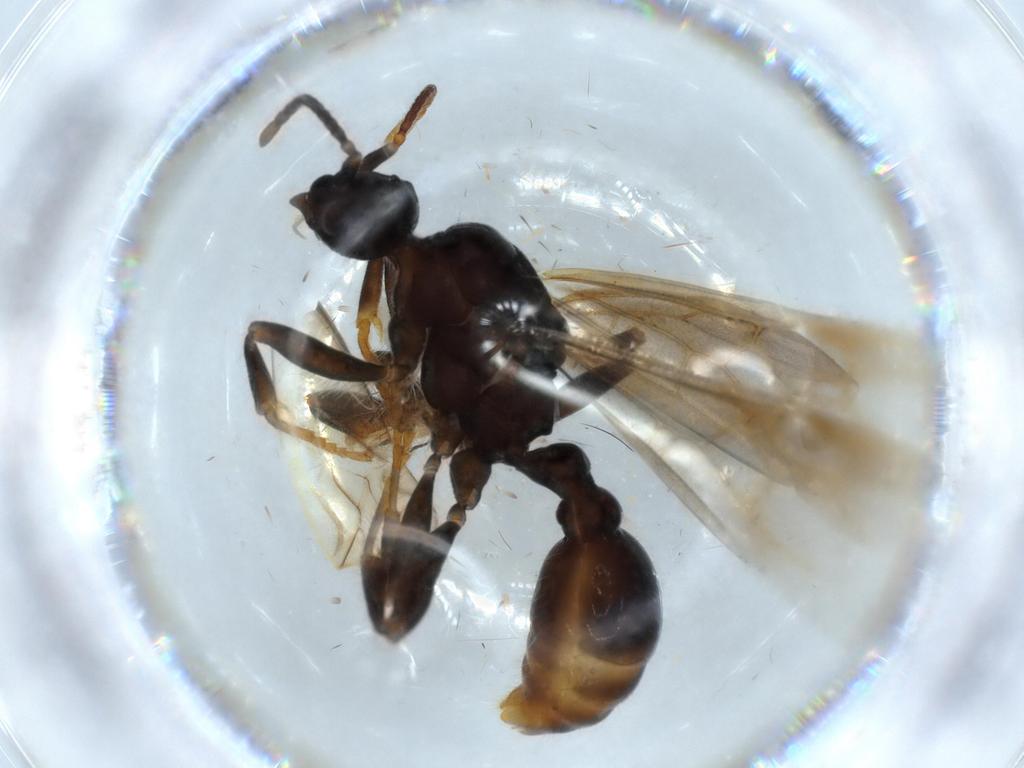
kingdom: Animalia
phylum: Arthropoda
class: Insecta
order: Hymenoptera
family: Formicidae
